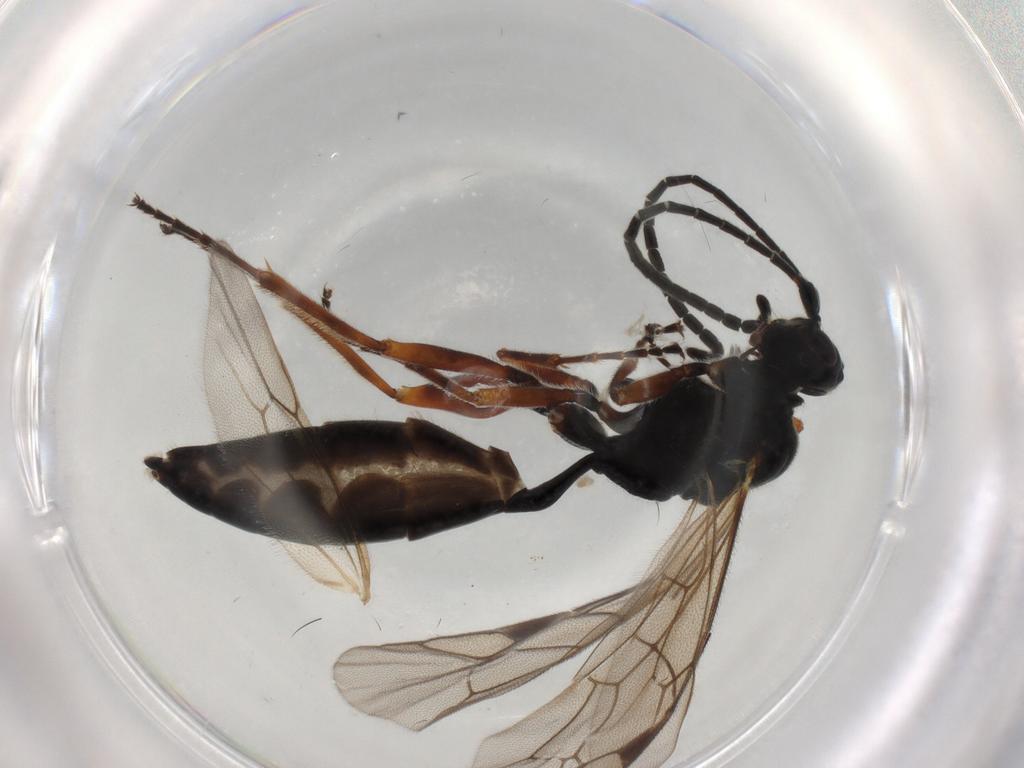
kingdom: Animalia
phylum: Arthropoda
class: Insecta
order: Hymenoptera
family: Ichneumonidae
